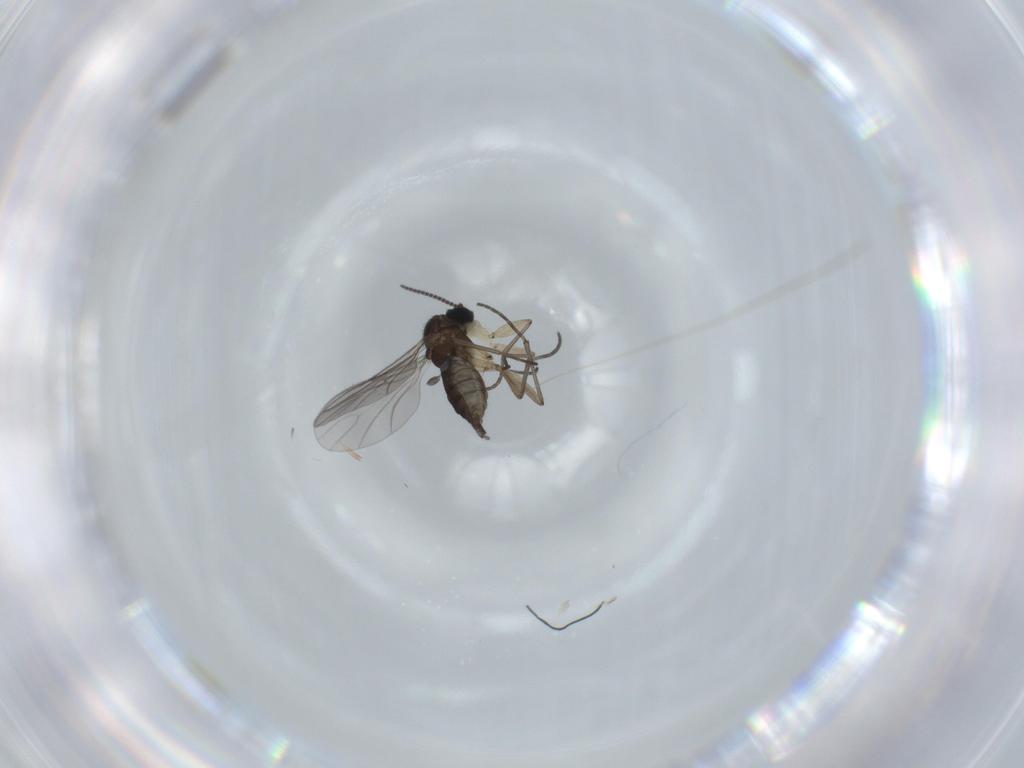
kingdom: Animalia
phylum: Arthropoda
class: Insecta
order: Diptera
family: Sciaridae
